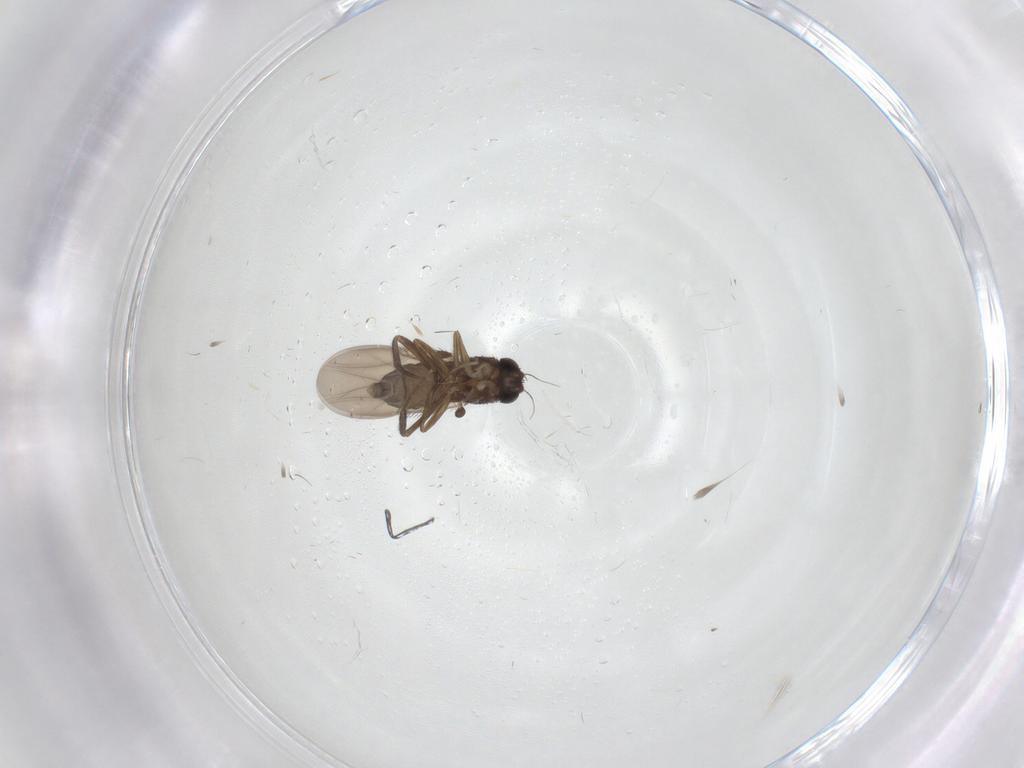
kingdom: Animalia
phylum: Arthropoda
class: Insecta
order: Diptera
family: Phoridae
